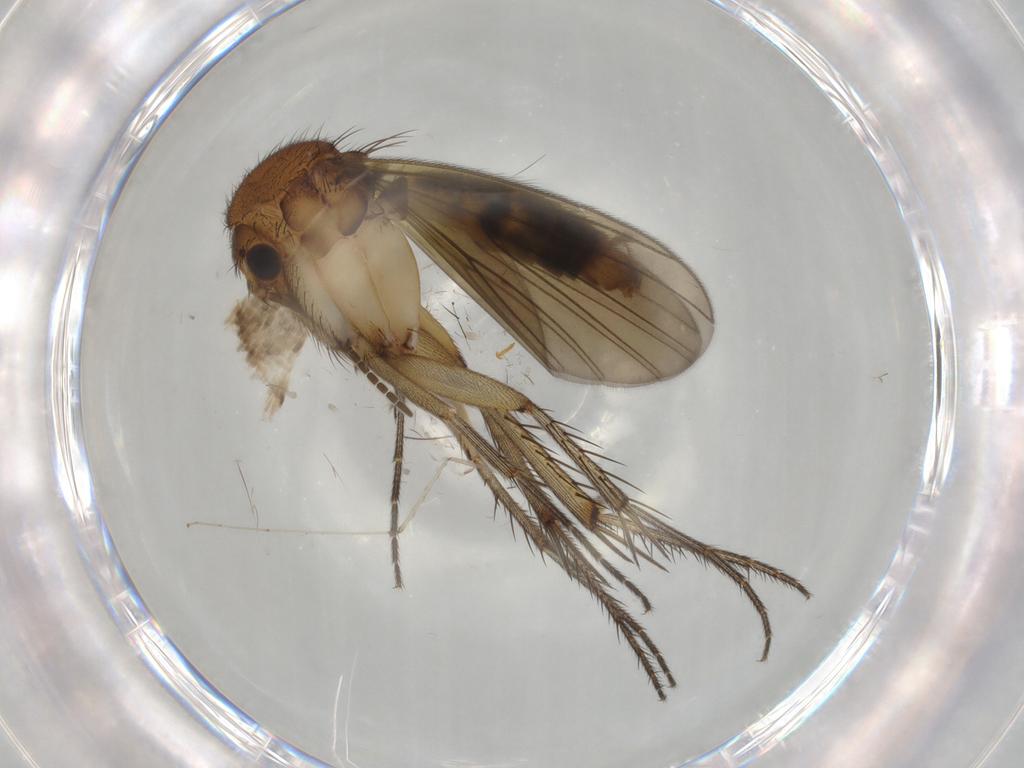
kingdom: Animalia
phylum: Arthropoda
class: Insecta
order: Diptera
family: Mycetophilidae
